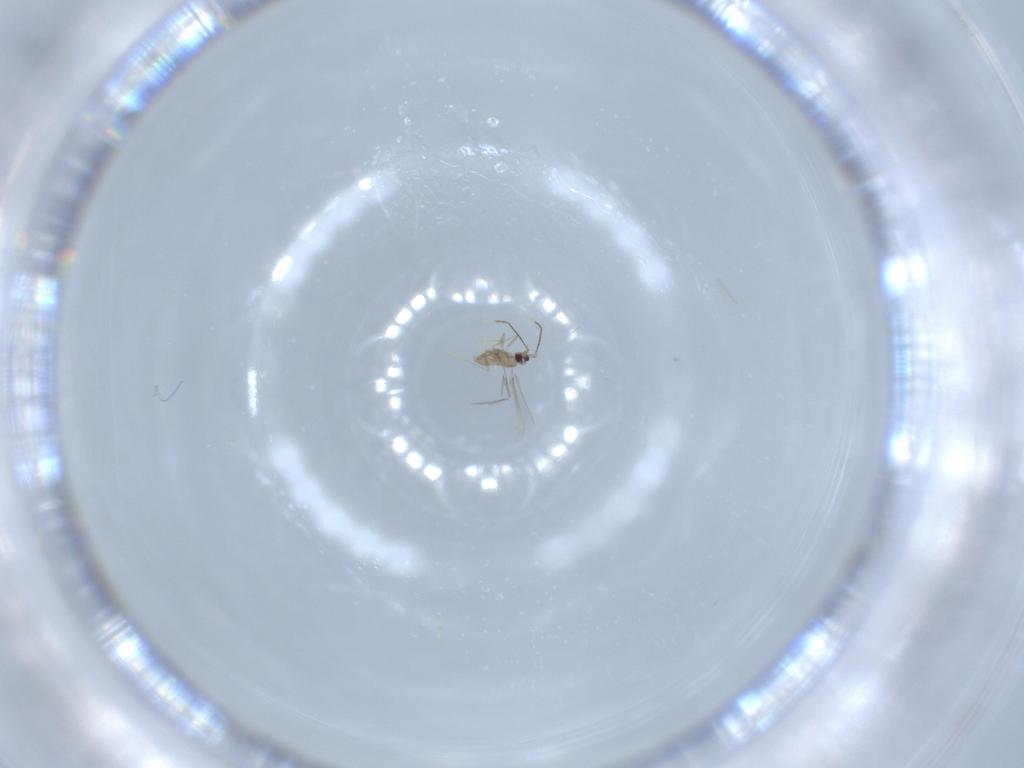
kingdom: Animalia
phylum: Arthropoda
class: Insecta
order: Hymenoptera
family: Mymaridae
